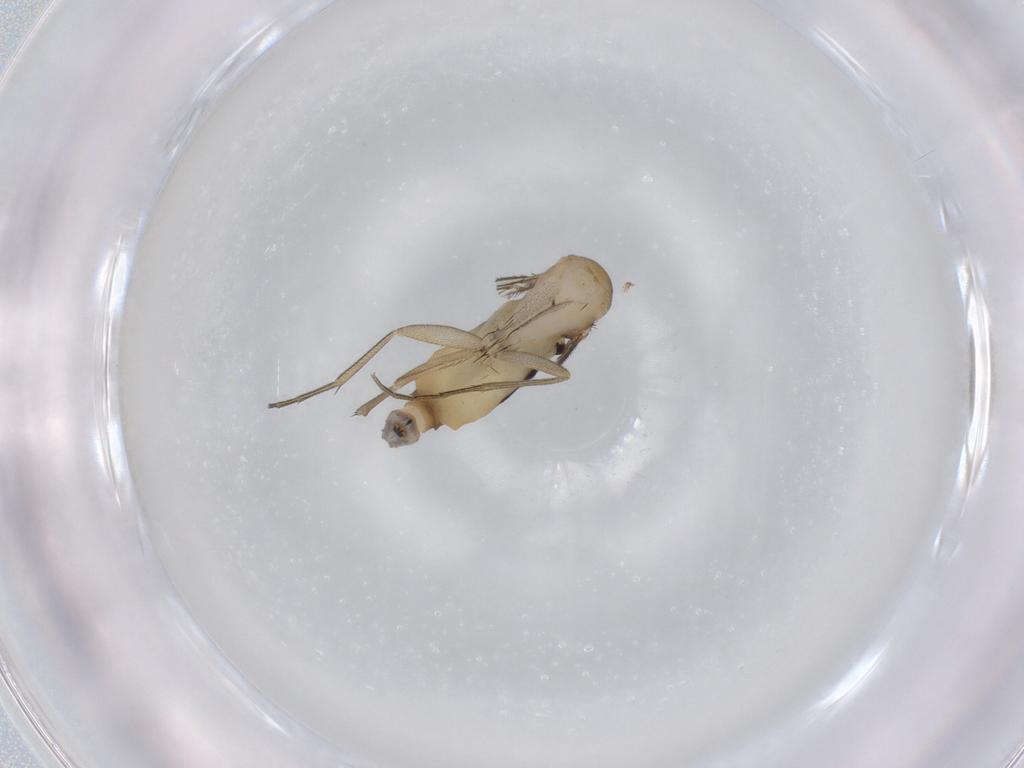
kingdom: Animalia
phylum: Arthropoda
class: Insecta
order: Diptera
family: Phoridae
